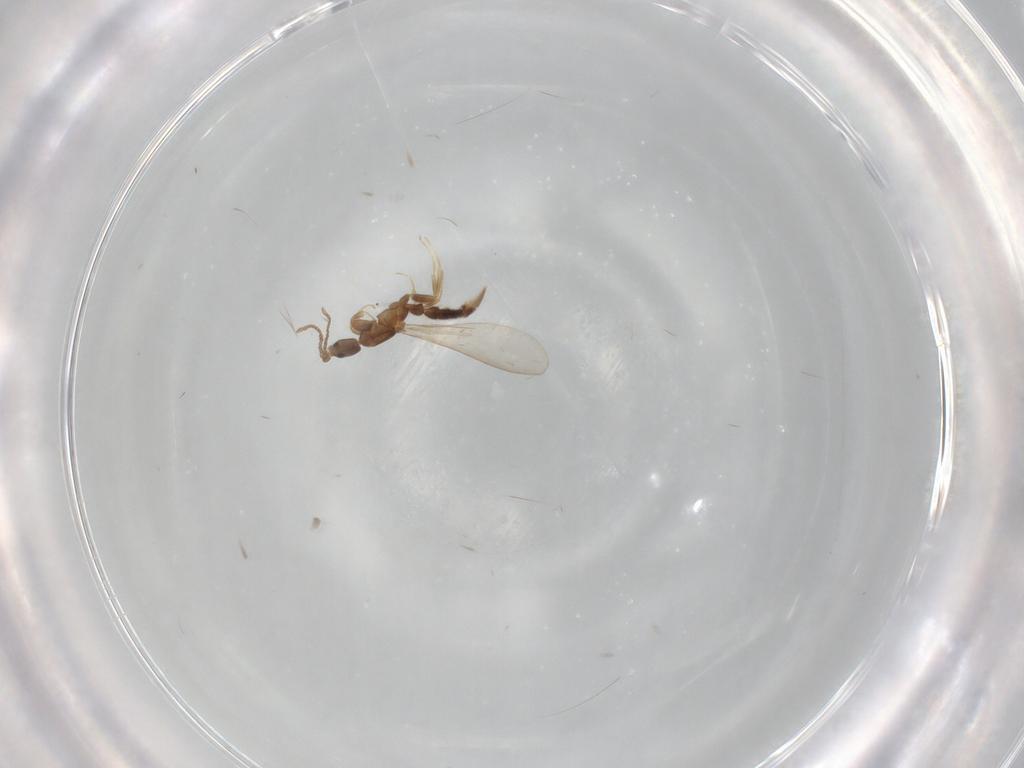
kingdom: Animalia
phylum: Arthropoda
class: Insecta
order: Hymenoptera
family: Formicidae
